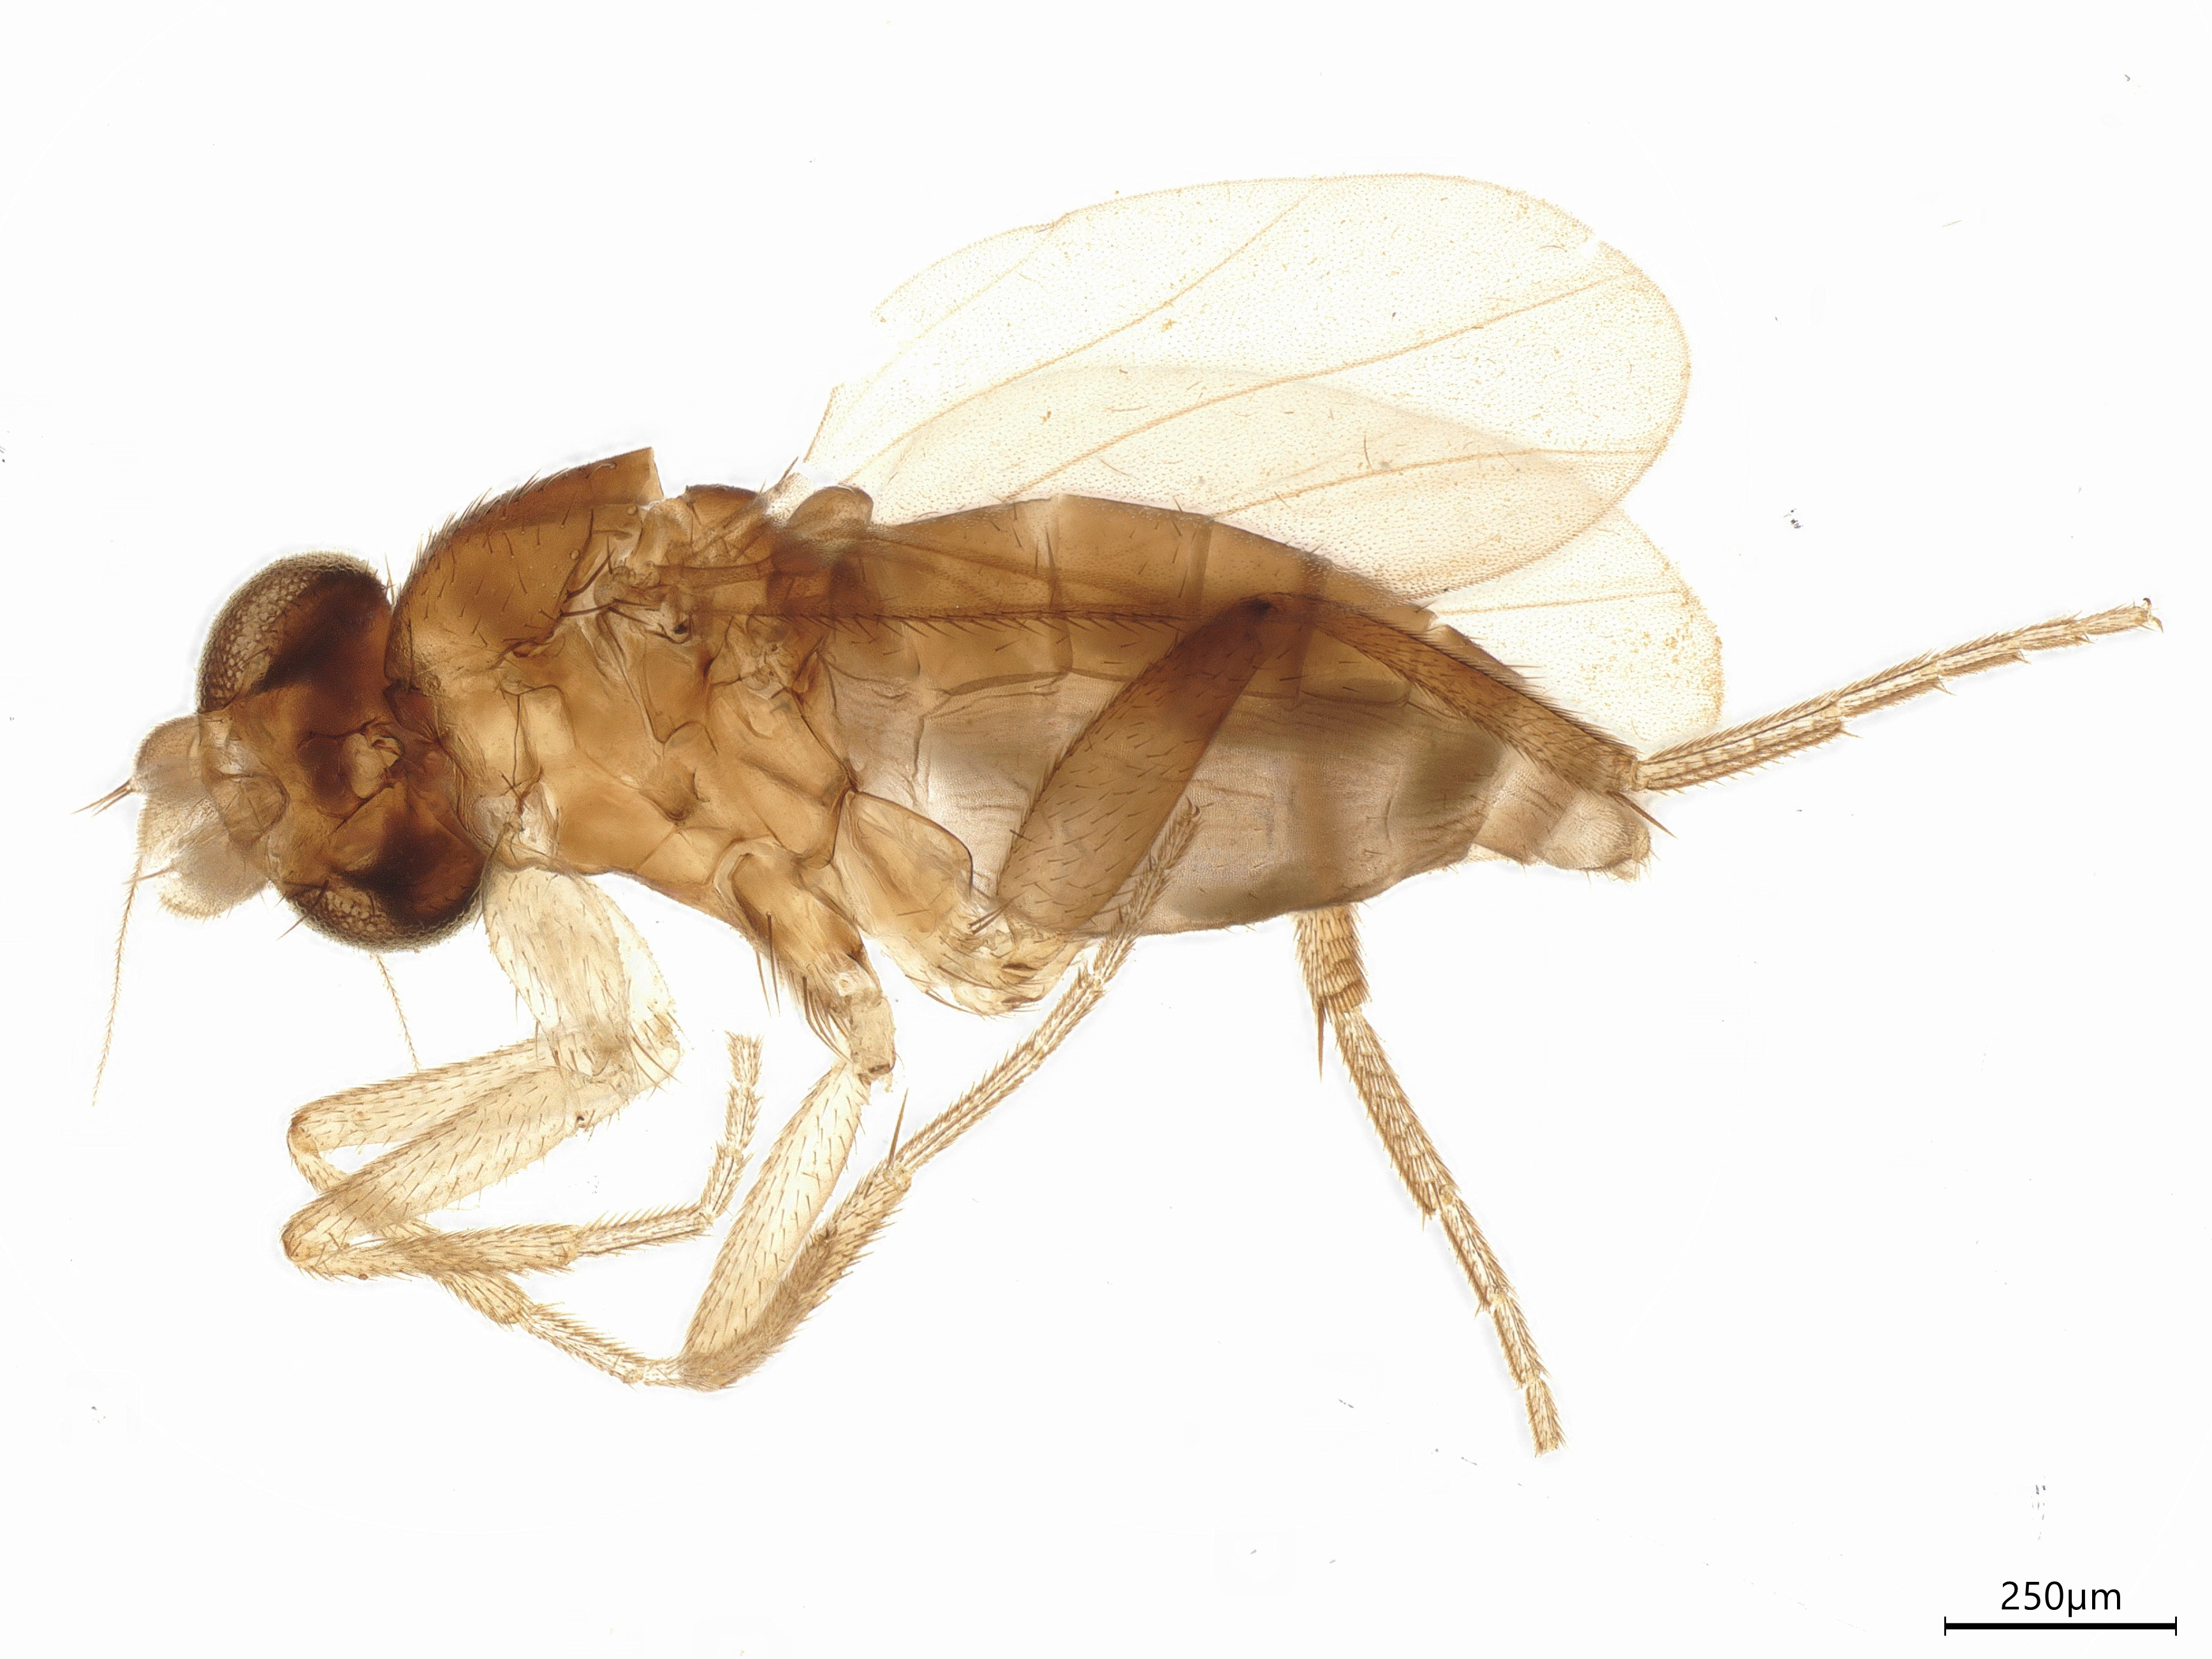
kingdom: Animalia
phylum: Arthropoda
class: Insecta
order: Diptera
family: Phoridae
